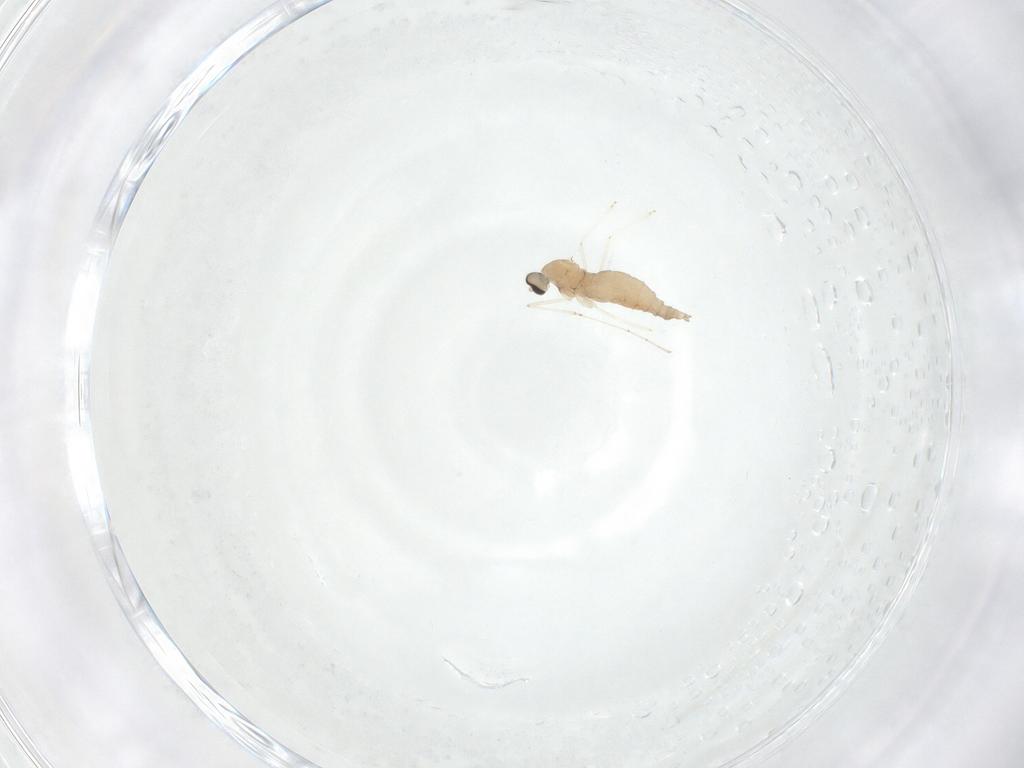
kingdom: Animalia
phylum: Arthropoda
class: Insecta
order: Diptera
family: Cecidomyiidae
